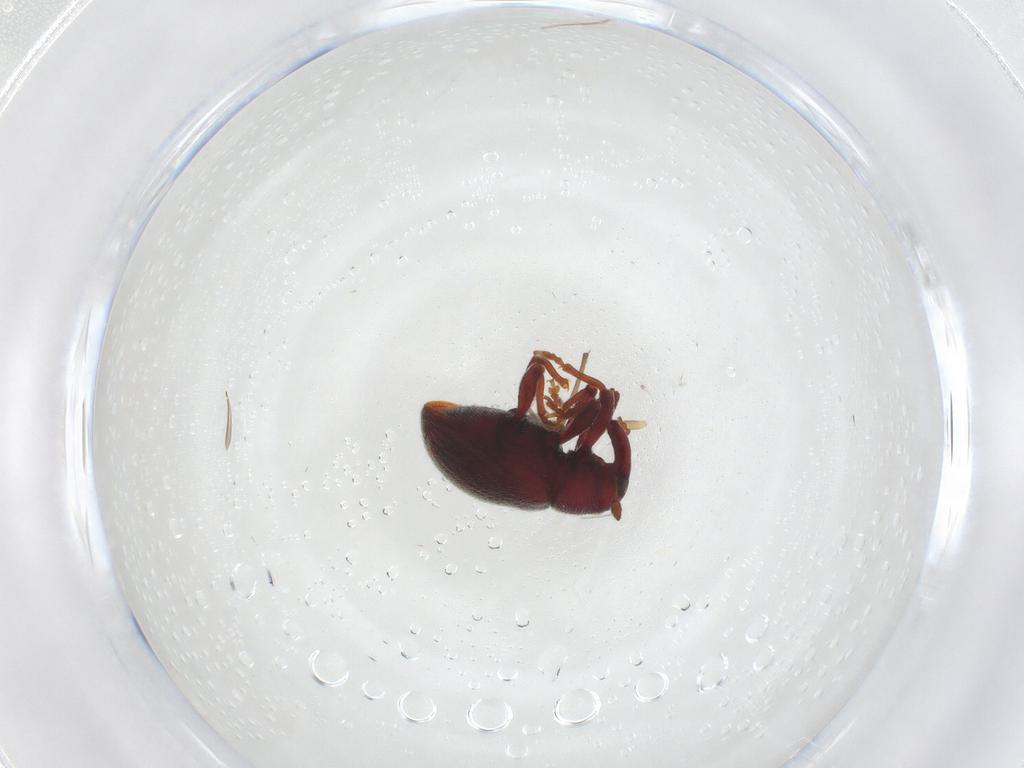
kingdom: Animalia
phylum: Arthropoda
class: Insecta
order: Coleoptera
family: Curculionidae
